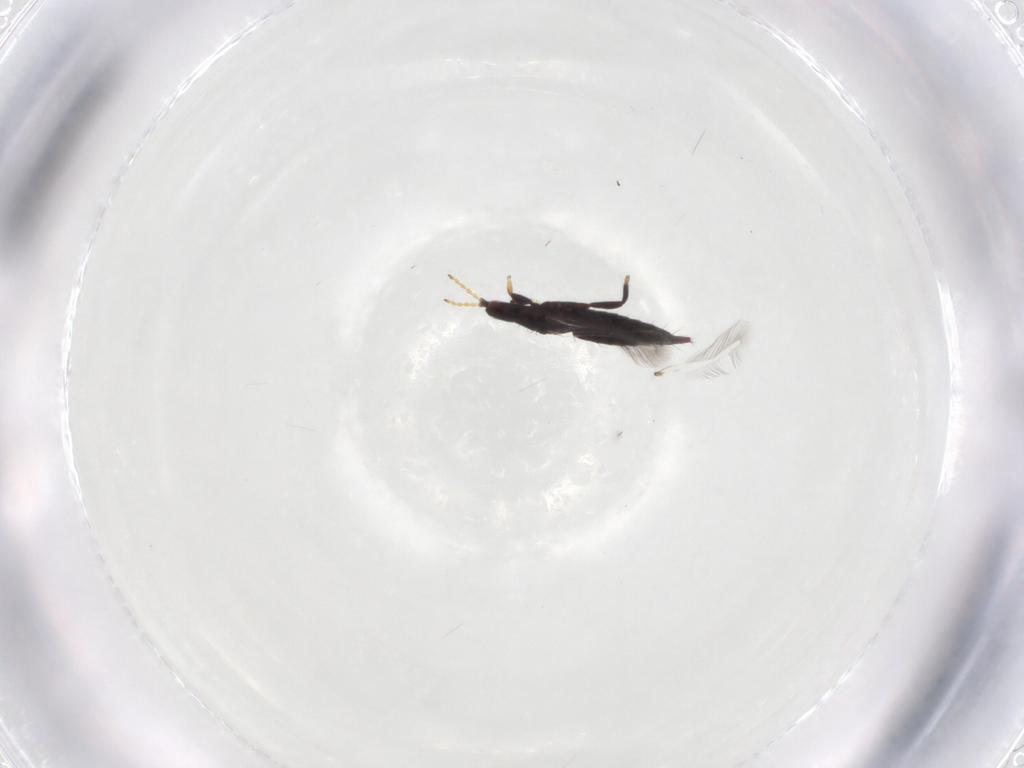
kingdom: Animalia
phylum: Arthropoda
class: Insecta
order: Thysanoptera
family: Phlaeothripidae
